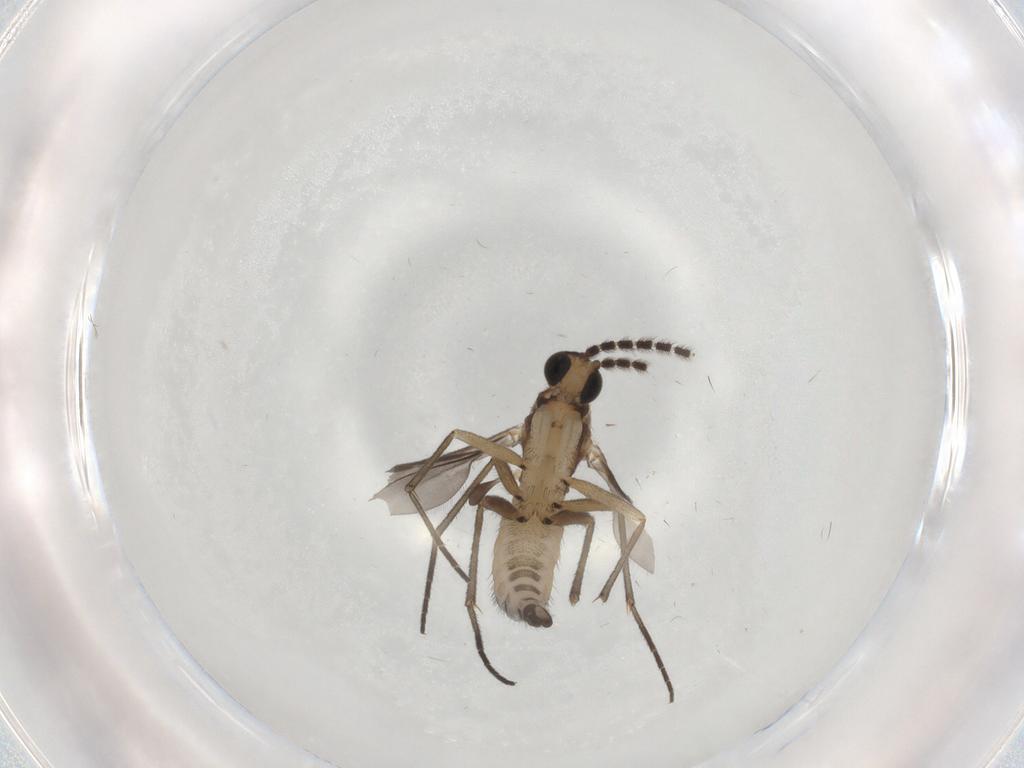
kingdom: Animalia
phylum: Arthropoda
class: Insecta
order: Diptera
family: Sciaridae
